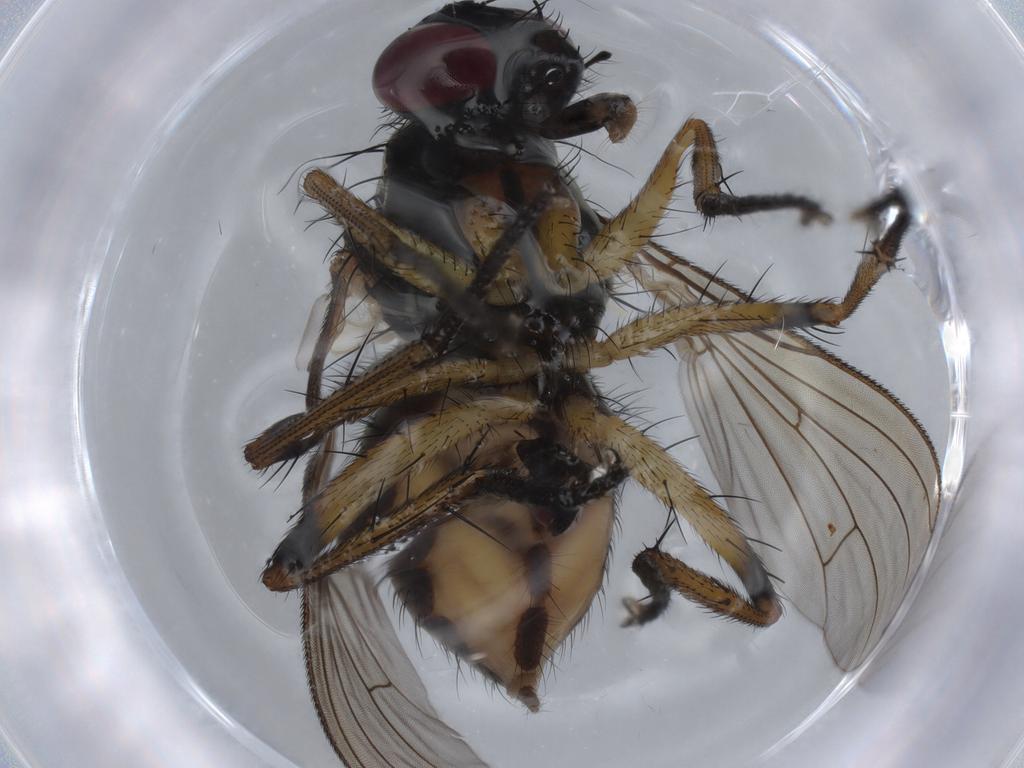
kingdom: Animalia
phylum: Arthropoda
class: Insecta
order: Diptera
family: Muscidae
